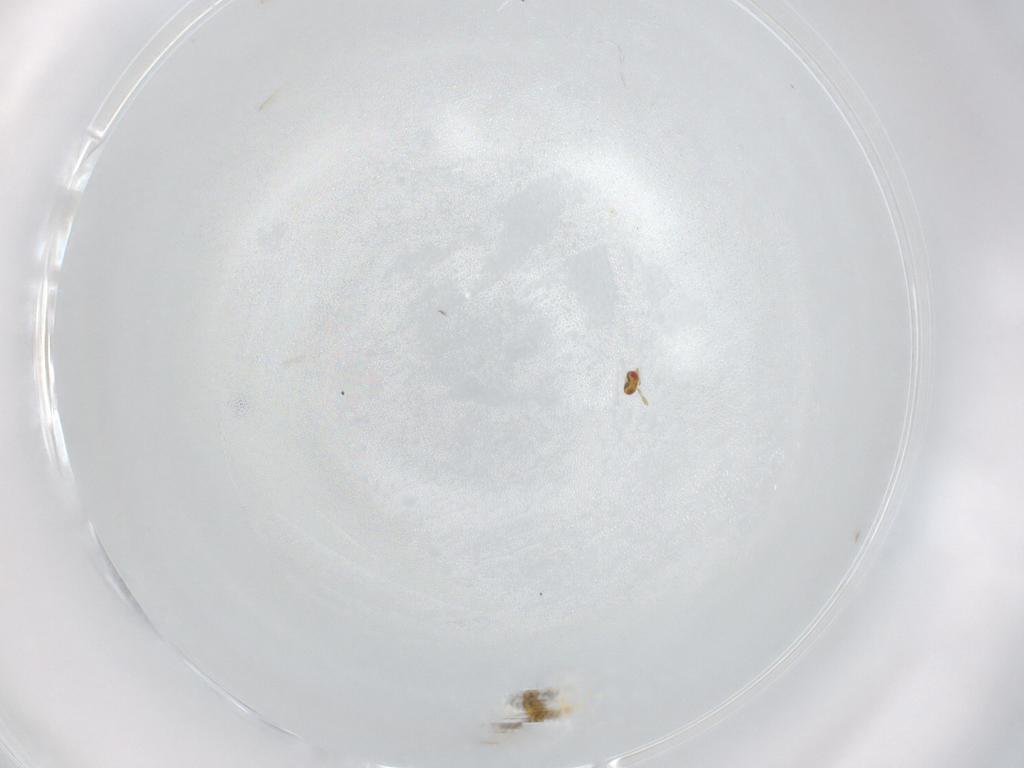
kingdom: Animalia
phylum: Arthropoda
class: Insecta
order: Hymenoptera
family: Trichogrammatidae
